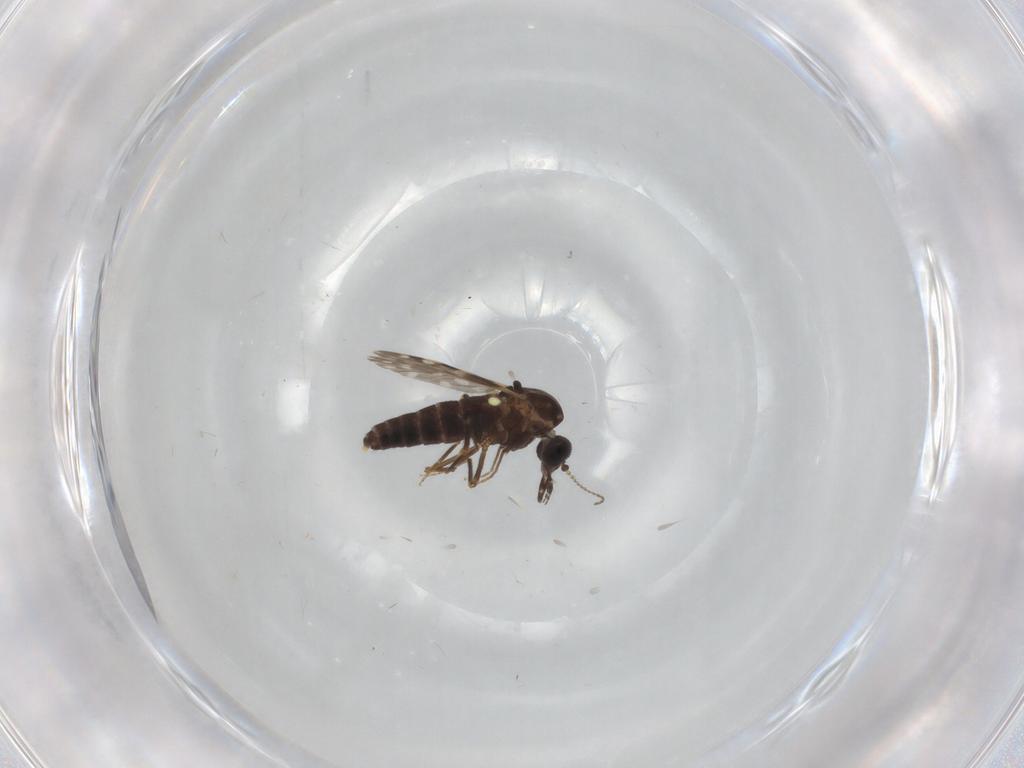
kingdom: Animalia
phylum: Arthropoda
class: Insecta
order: Diptera
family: Ceratopogonidae
